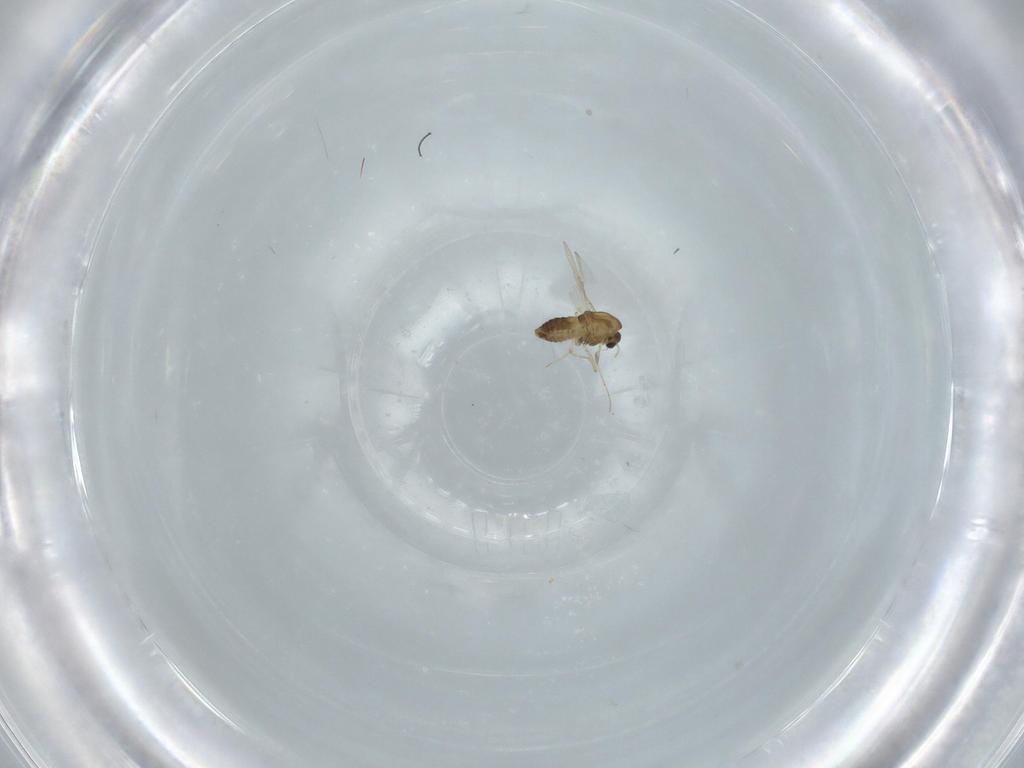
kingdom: Animalia
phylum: Arthropoda
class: Insecta
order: Diptera
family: Chironomidae
